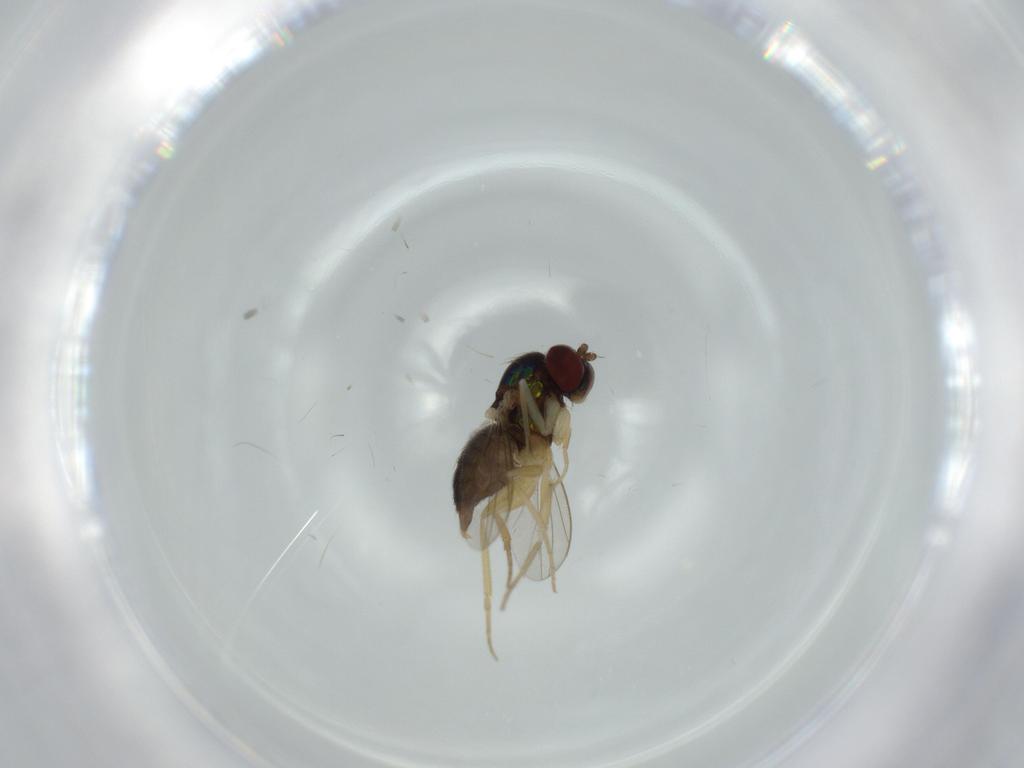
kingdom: Animalia
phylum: Arthropoda
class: Insecta
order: Diptera
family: Dolichopodidae
